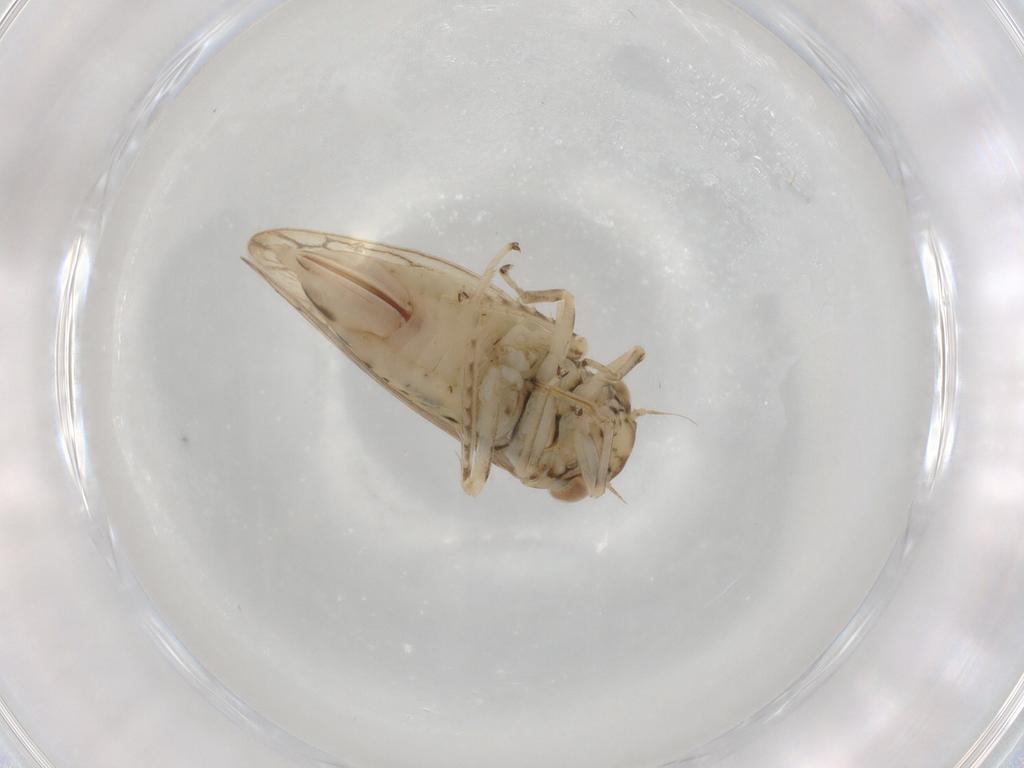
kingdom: Animalia
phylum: Arthropoda
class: Insecta
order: Hemiptera
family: Cicadellidae
